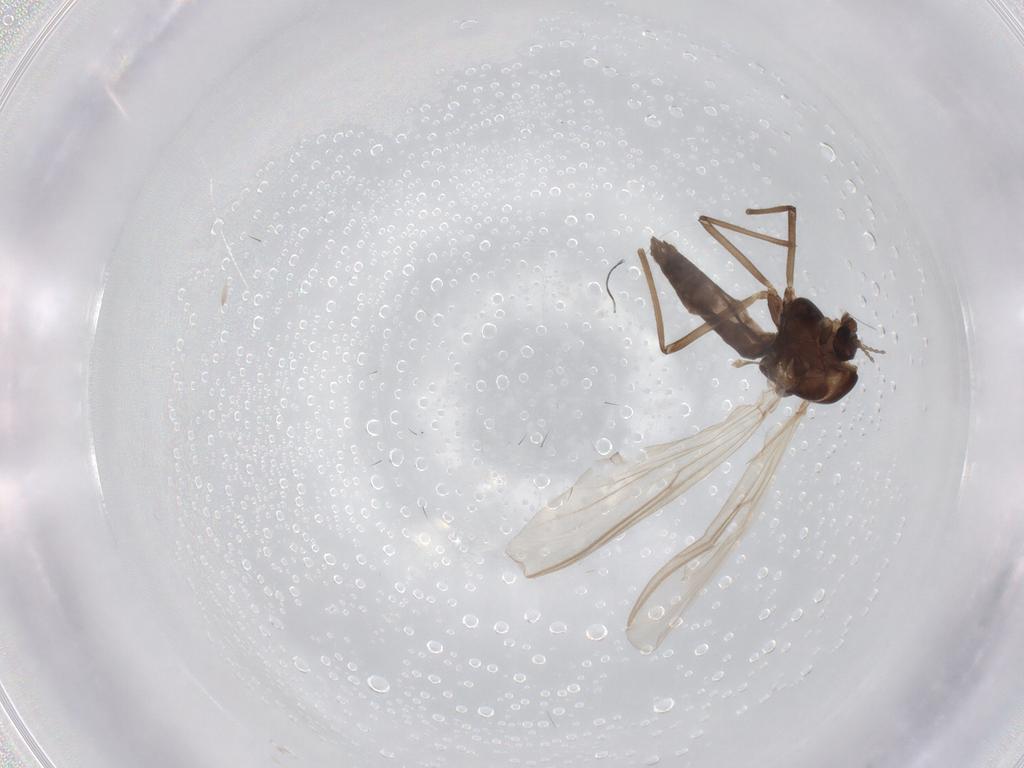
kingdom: Animalia
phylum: Arthropoda
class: Insecta
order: Diptera
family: Chironomidae
